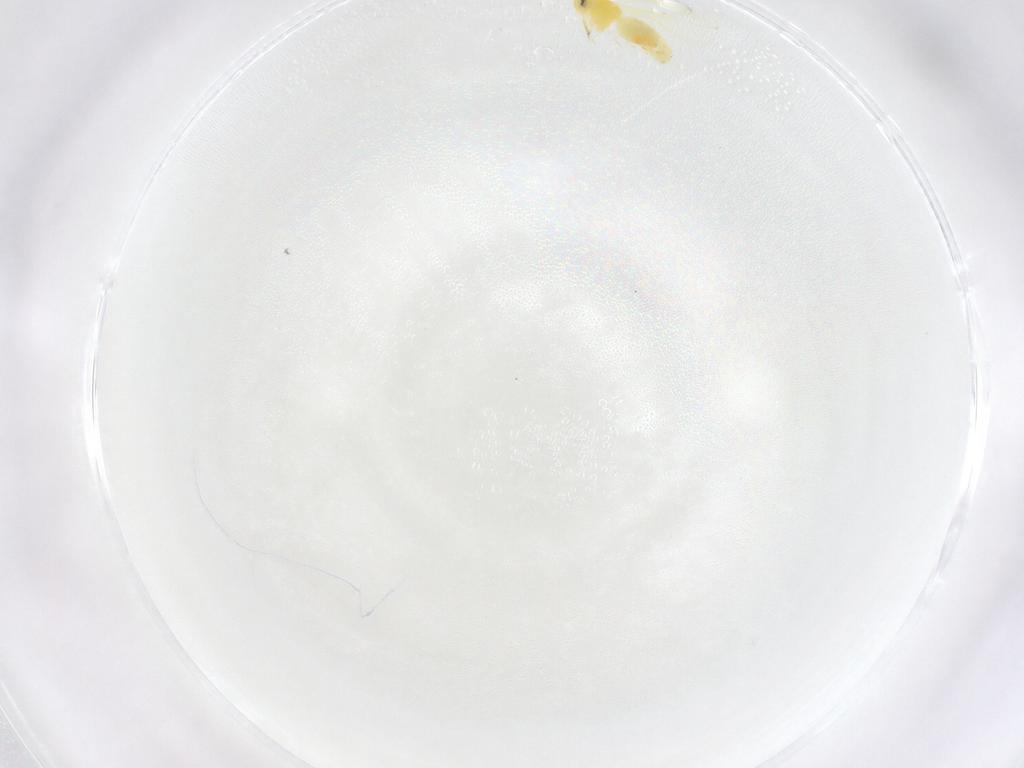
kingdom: Animalia
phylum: Arthropoda
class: Insecta
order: Hemiptera
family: Aleyrodidae
